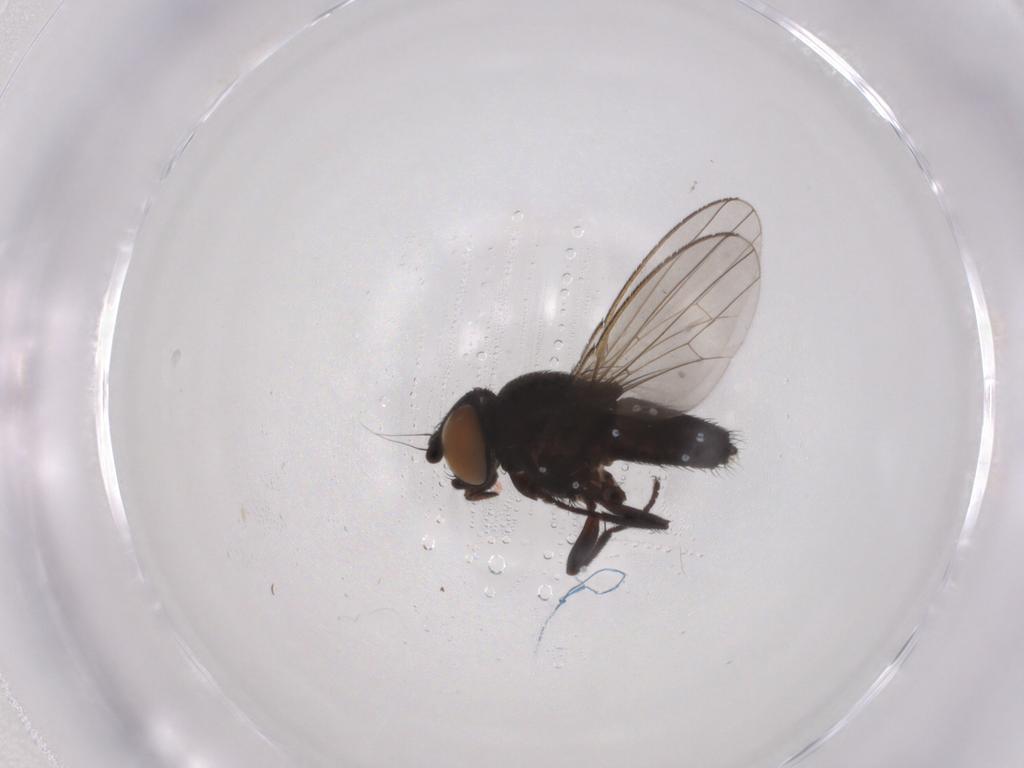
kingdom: Animalia
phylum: Arthropoda
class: Insecta
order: Diptera
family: Milichiidae
